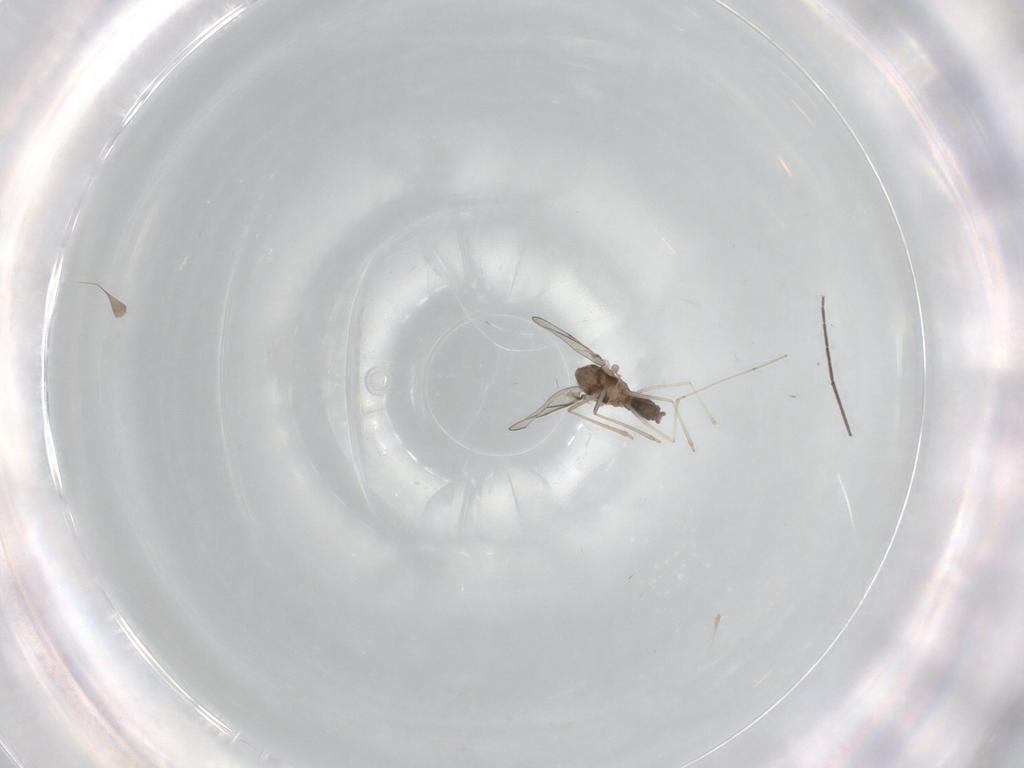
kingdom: Animalia
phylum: Arthropoda
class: Insecta
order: Diptera
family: Cecidomyiidae
